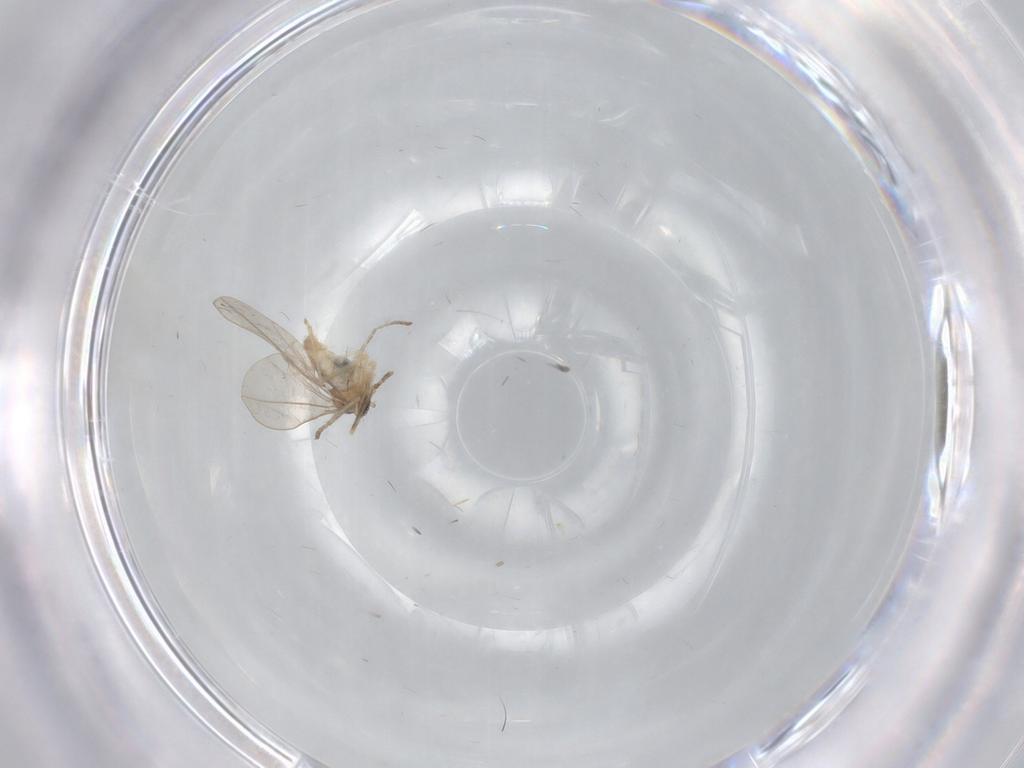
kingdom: Animalia
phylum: Arthropoda
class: Insecta
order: Diptera
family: Cecidomyiidae
